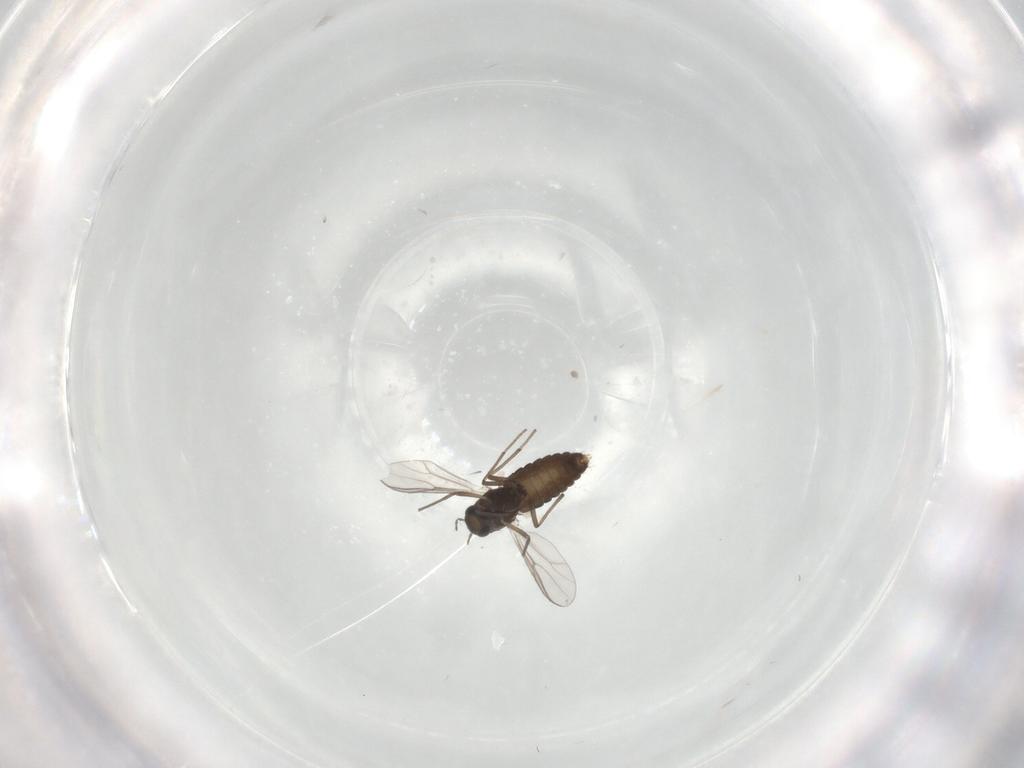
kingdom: Animalia
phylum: Arthropoda
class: Insecta
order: Diptera
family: Chironomidae
